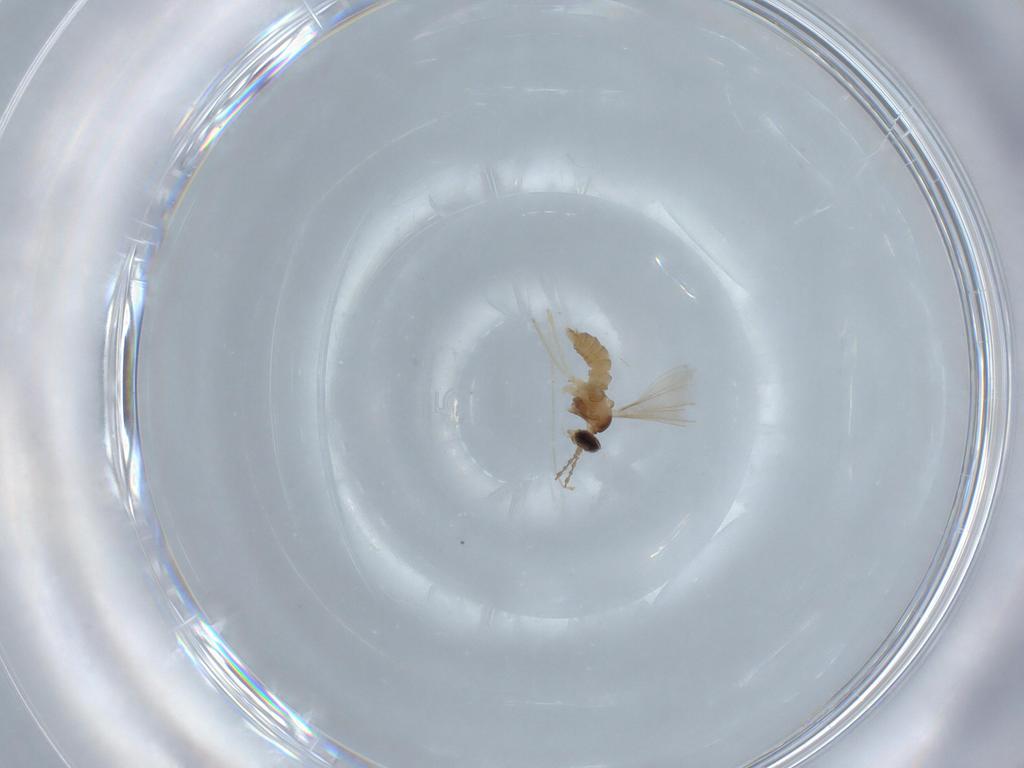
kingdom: Animalia
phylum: Arthropoda
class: Insecta
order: Diptera
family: Cecidomyiidae
